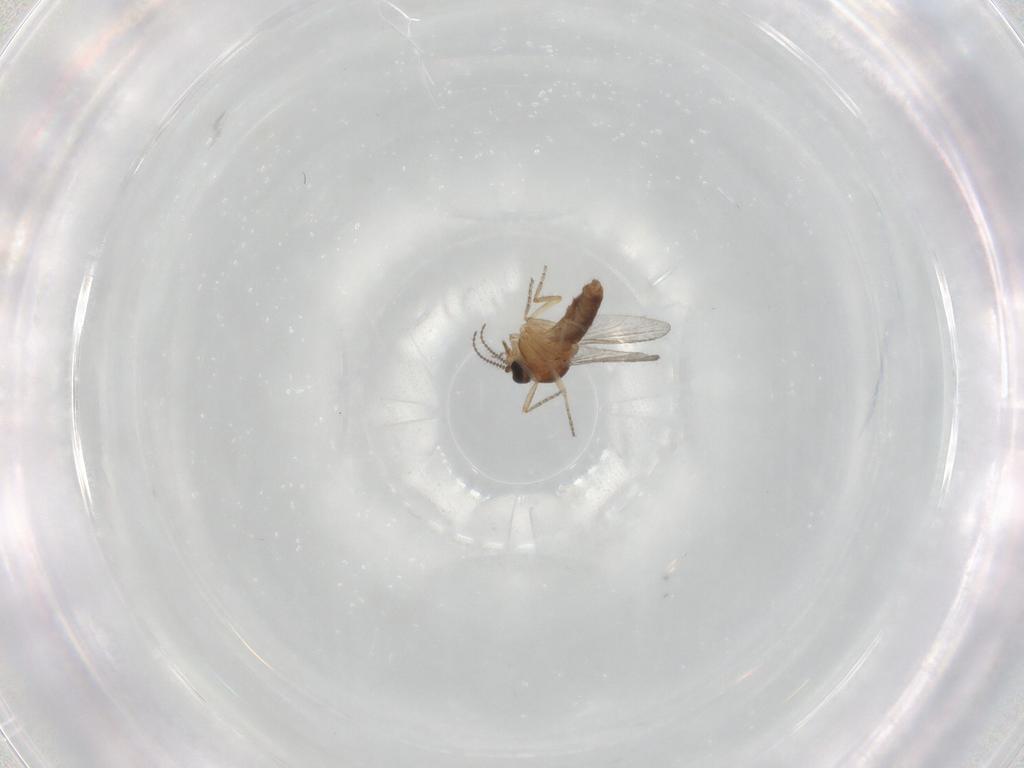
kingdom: Animalia
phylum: Arthropoda
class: Insecta
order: Diptera
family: Ceratopogonidae
